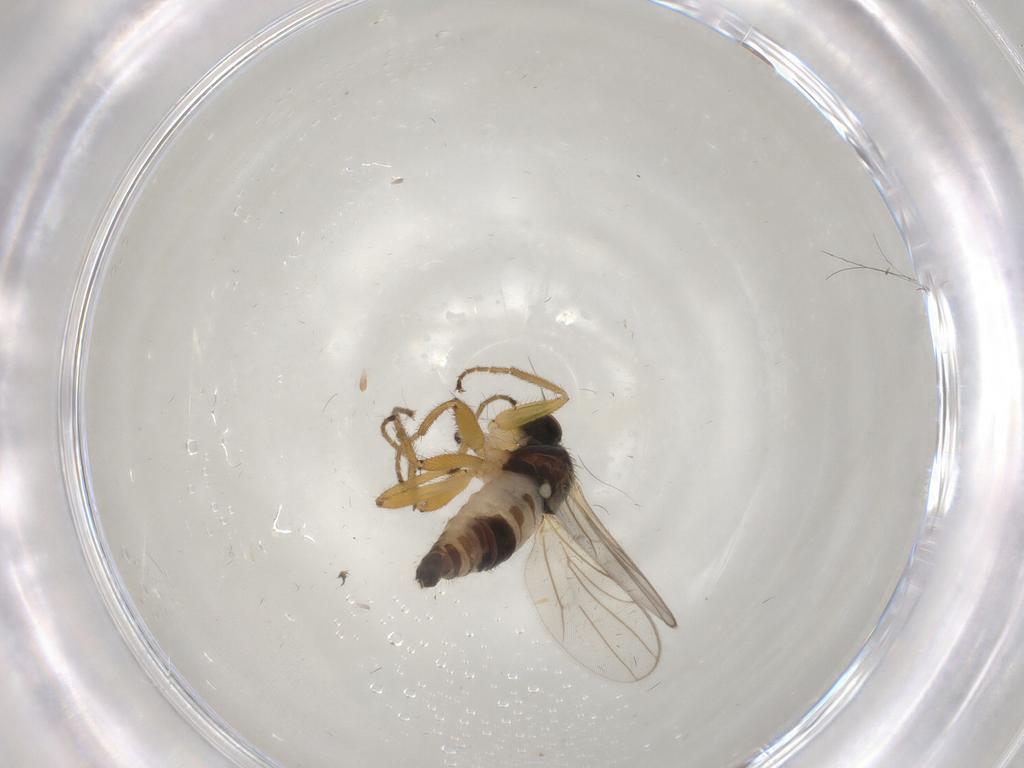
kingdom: Animalia
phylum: Arthropoda
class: Insecta
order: Diptera
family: Hybotidae
